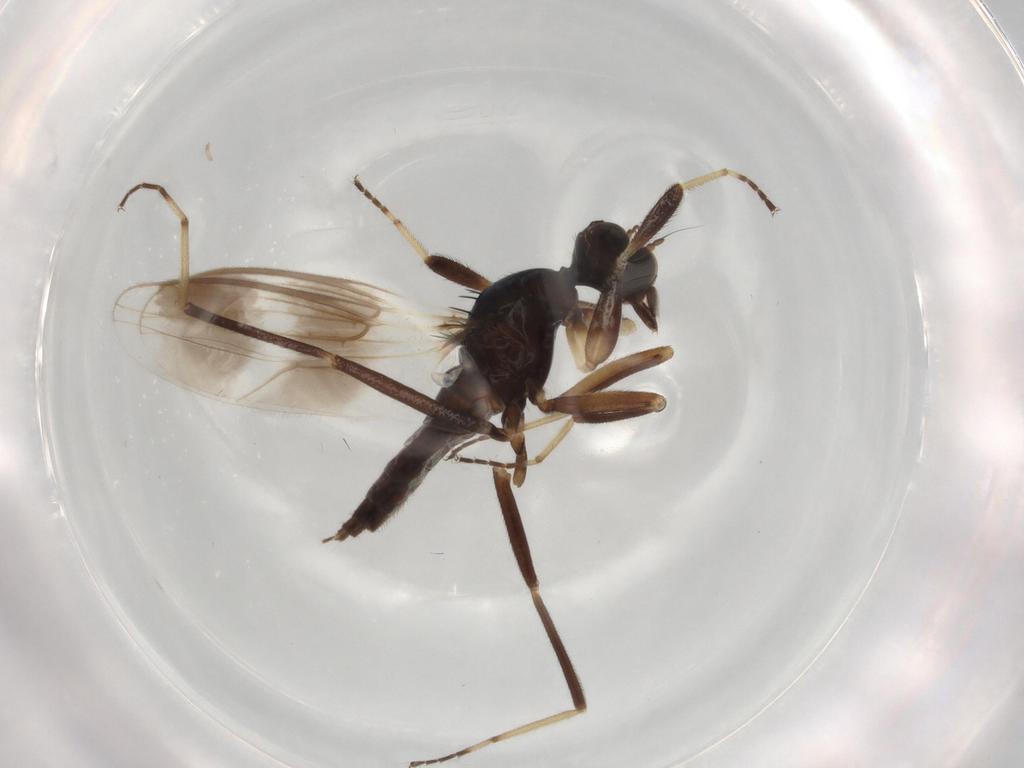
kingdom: Animalia
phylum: Arthropoda
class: Insecta
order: Diptera
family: Hybotidae
